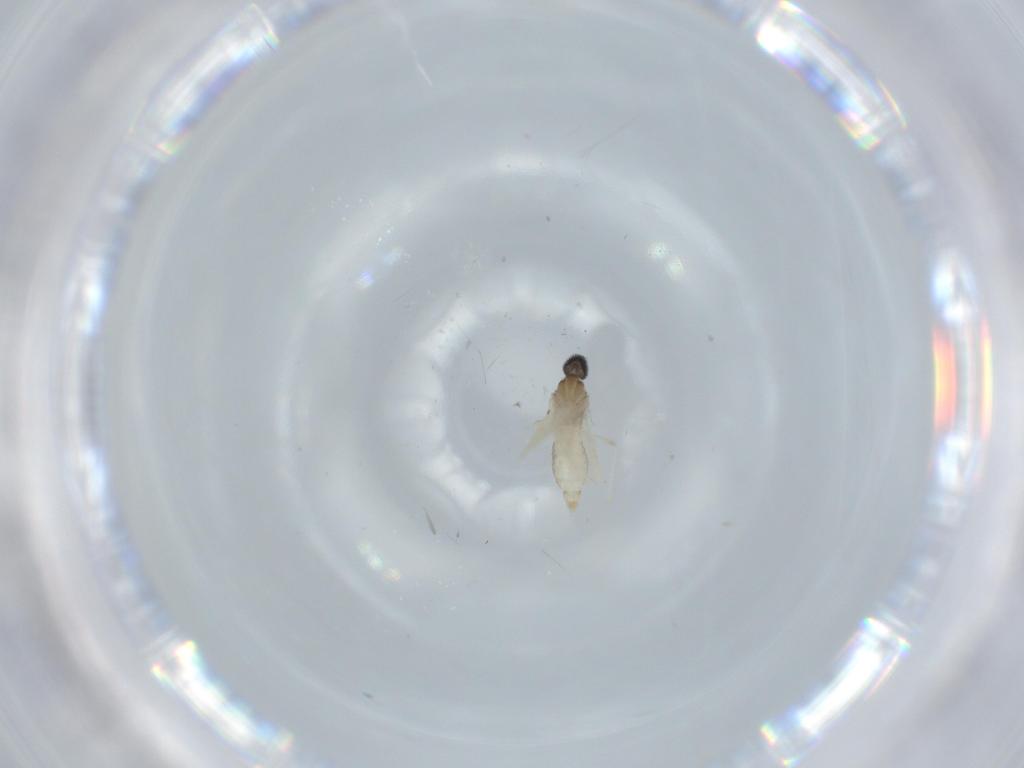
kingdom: Animalia
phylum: Arthropoda
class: Insecta
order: Diptera
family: Cecidomyiidae
